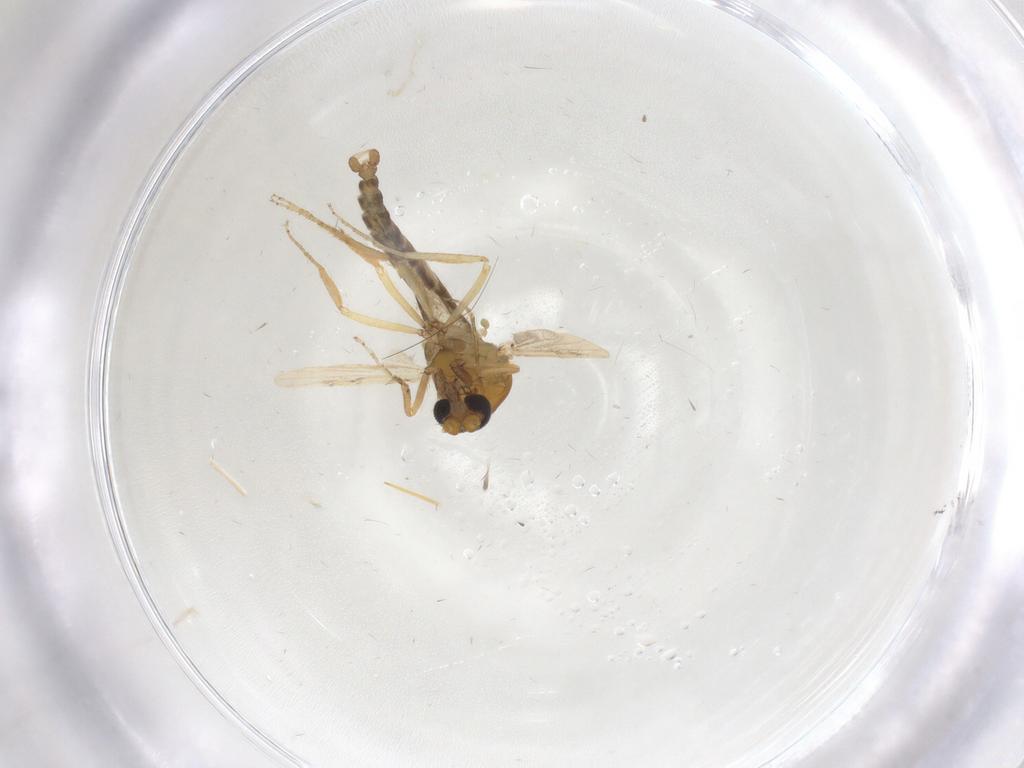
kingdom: Animalia
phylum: Arthropoda
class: Insecta
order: Diptera
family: Ceratopogonidae
